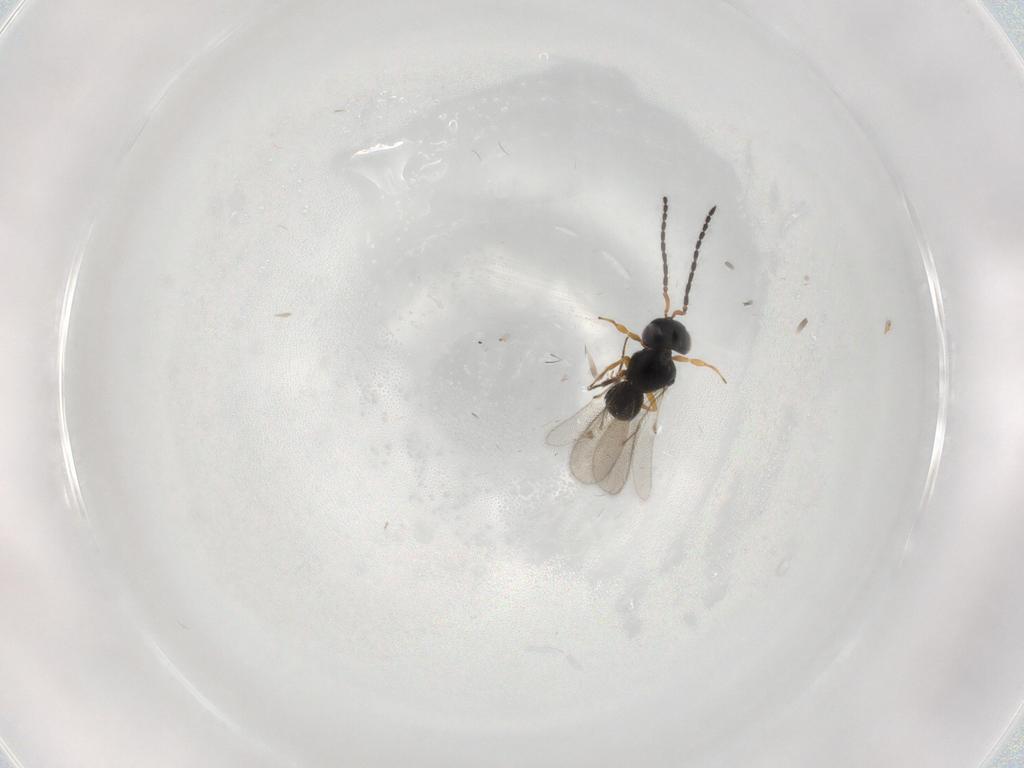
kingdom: Animalia
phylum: Arthropoda
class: Insecta
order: Hymenoptera
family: Scelionidae
